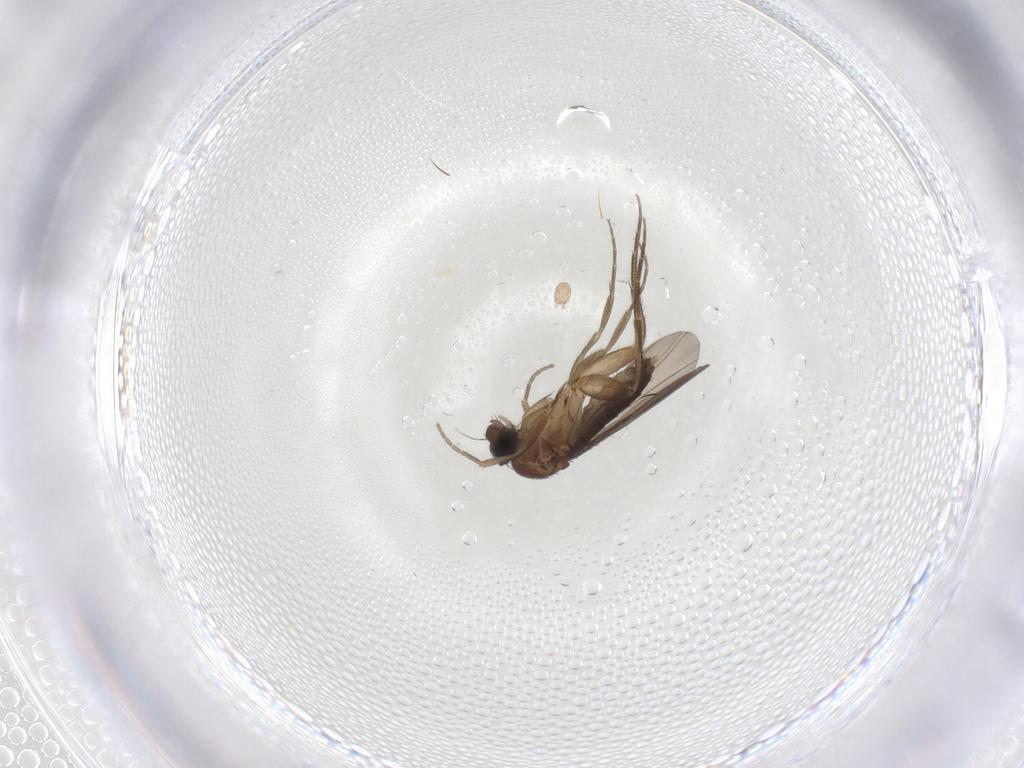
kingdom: Animalia
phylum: Arthropoda
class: Insecta
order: Diptera
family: Phoridae
